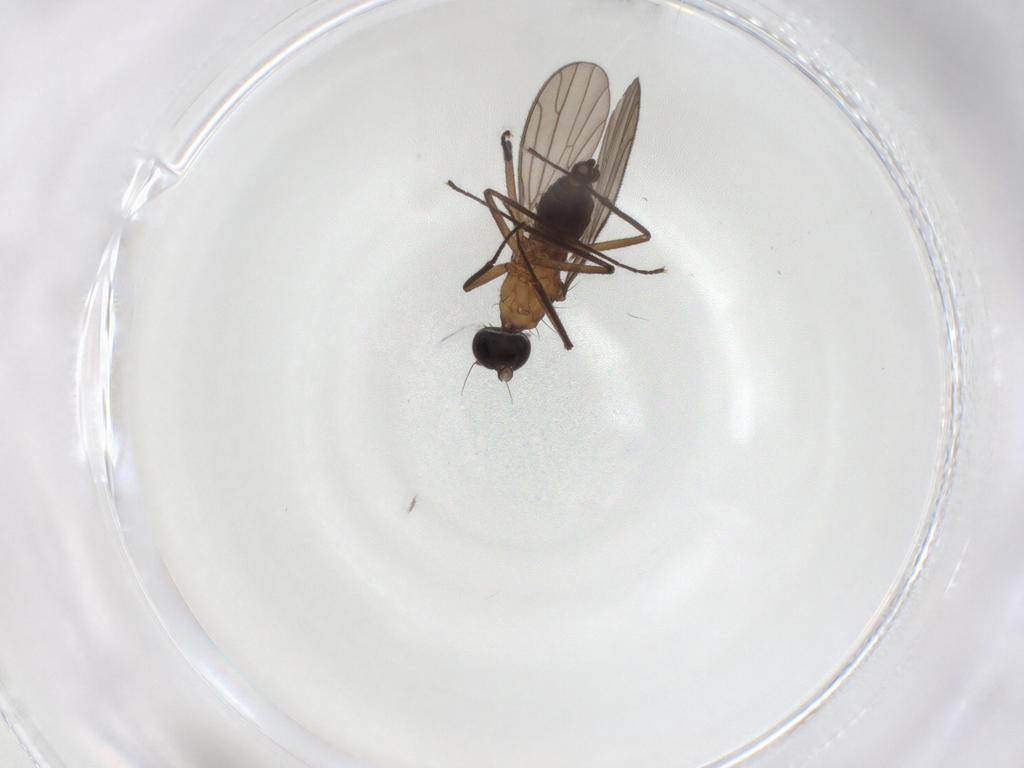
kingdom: Animalia
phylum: Arthropoda
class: Insecta
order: Diptera
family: Empididae
